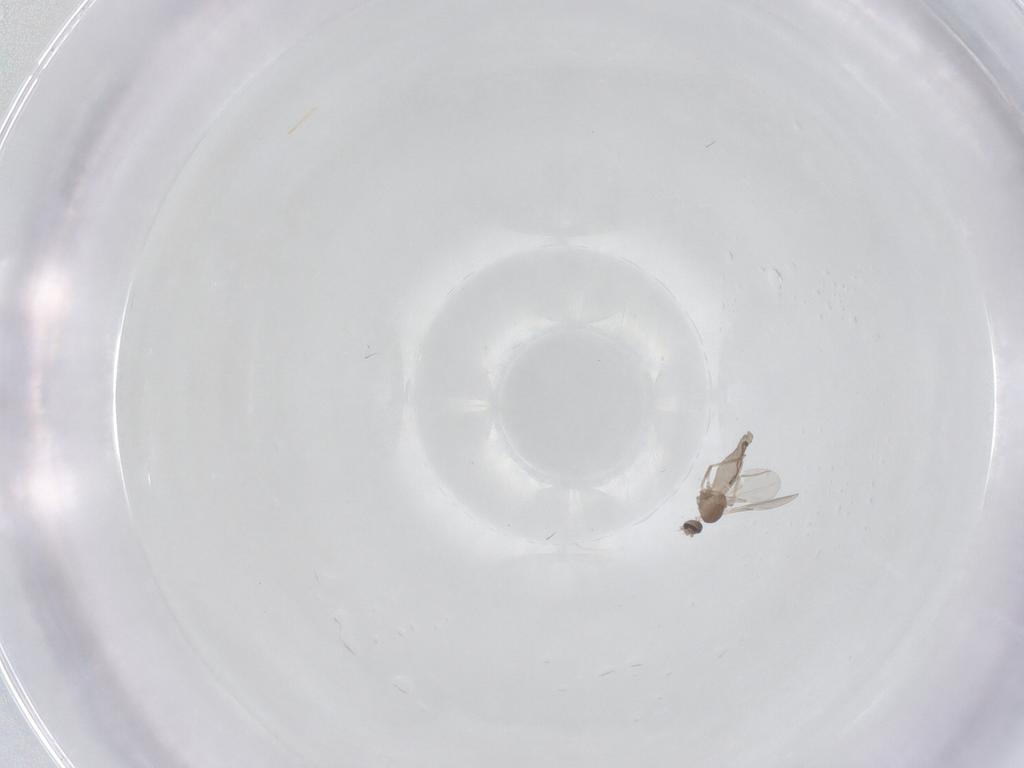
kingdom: Animalia
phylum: Arthropoda
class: Insecta
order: Diptera
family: Ceratopogonidae
